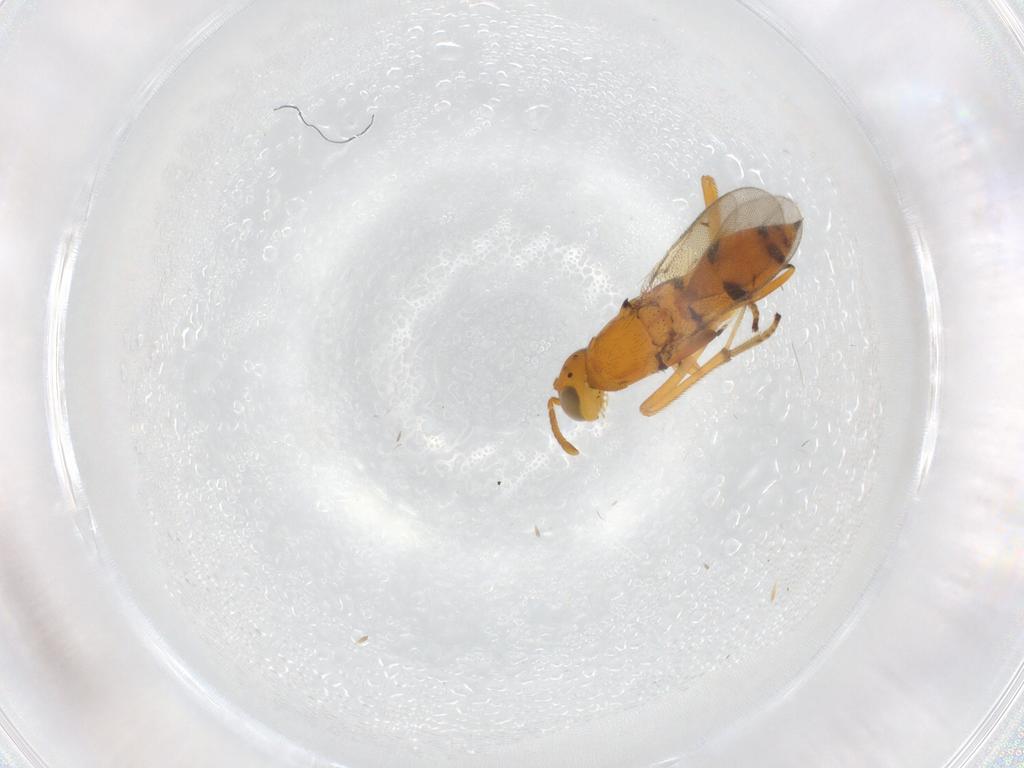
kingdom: Animalia
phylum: Arthropoda
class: Insecta
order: Hymenoptera
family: Eupelmidae
